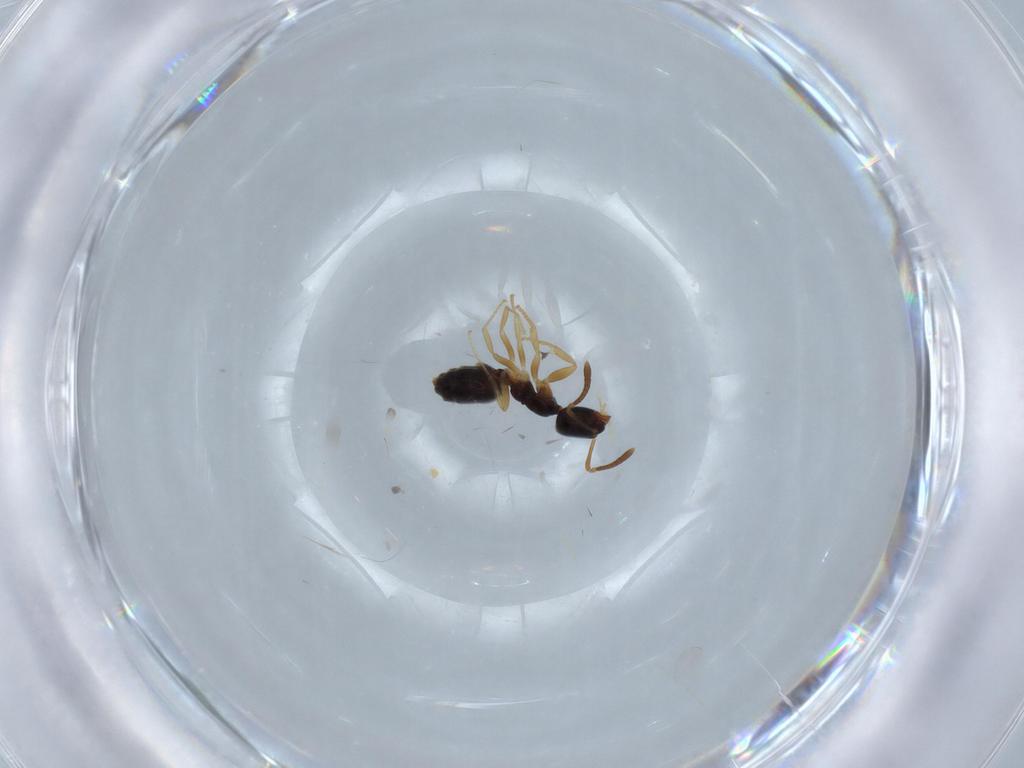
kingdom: Animalia
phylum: Arthropoda
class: Insecta
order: Hymenoptera
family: Formicidae
